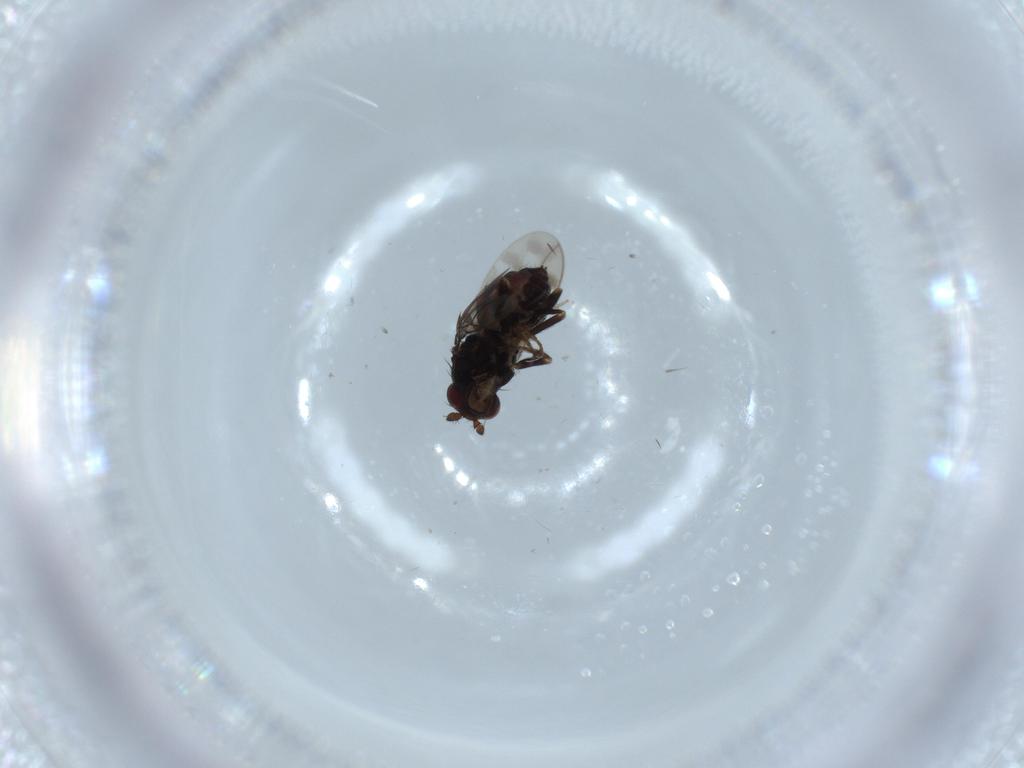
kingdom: Animalia
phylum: Arthropoda
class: Insecta
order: Diptera
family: Sphaeroceridae
